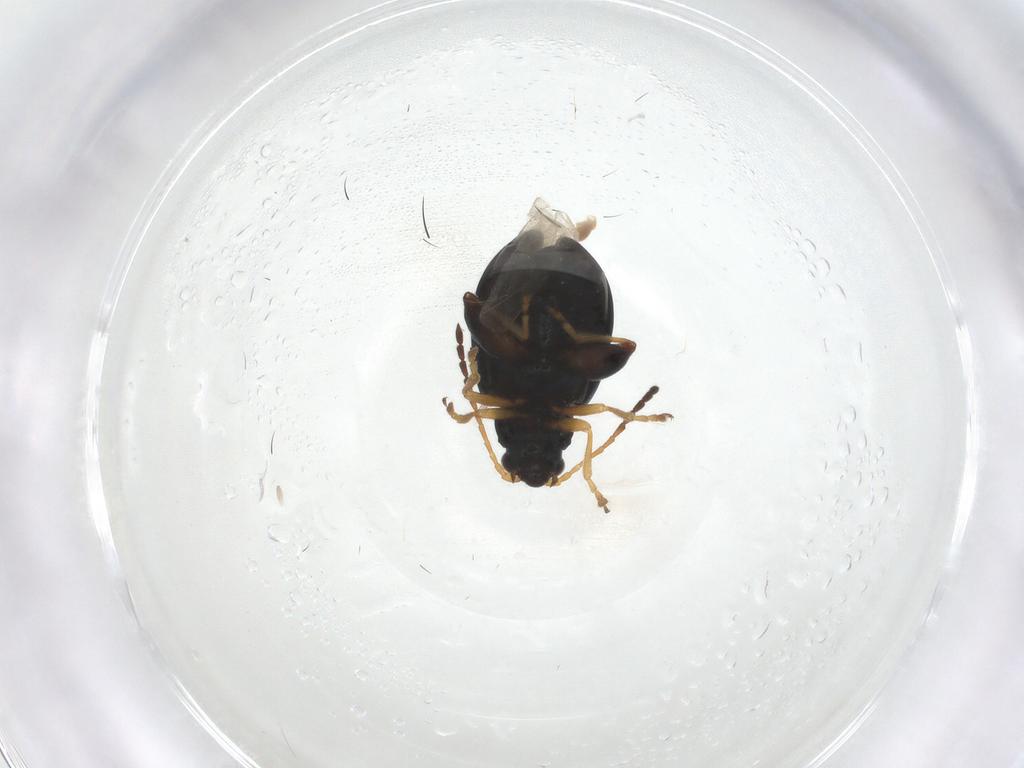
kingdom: Animalia
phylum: Arthropoda
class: Insecta
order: Coleoptera
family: Chrysomelidae
